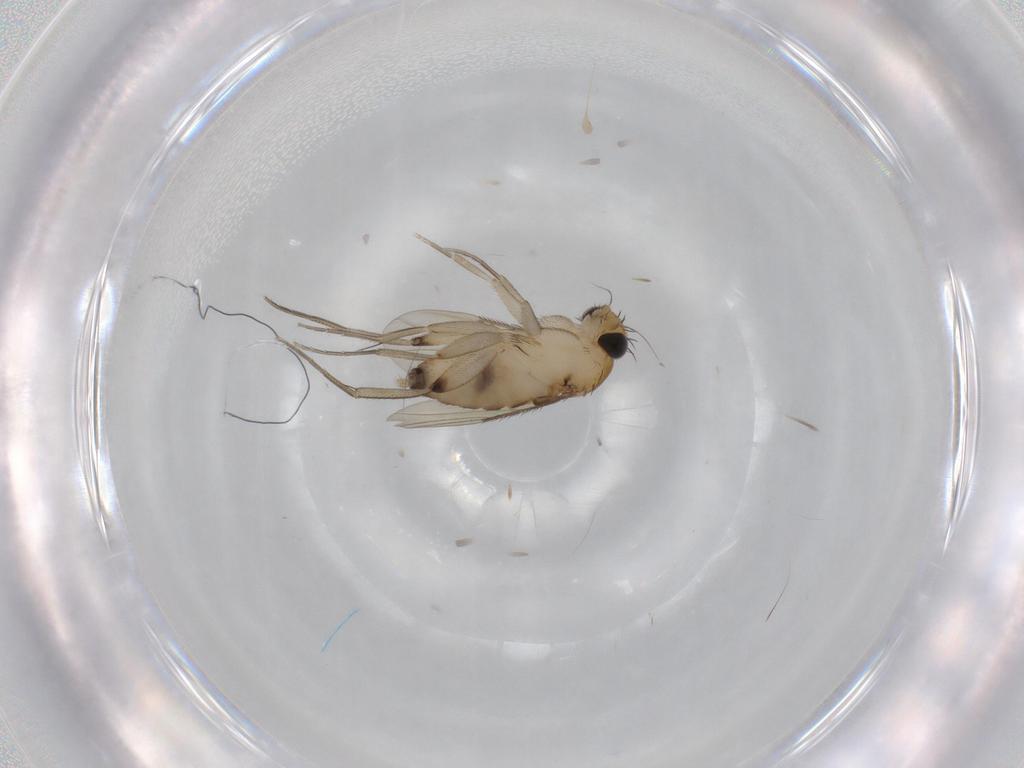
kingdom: Animalia
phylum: Arthropoda
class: Insecta
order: Diptera
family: Phoridae
